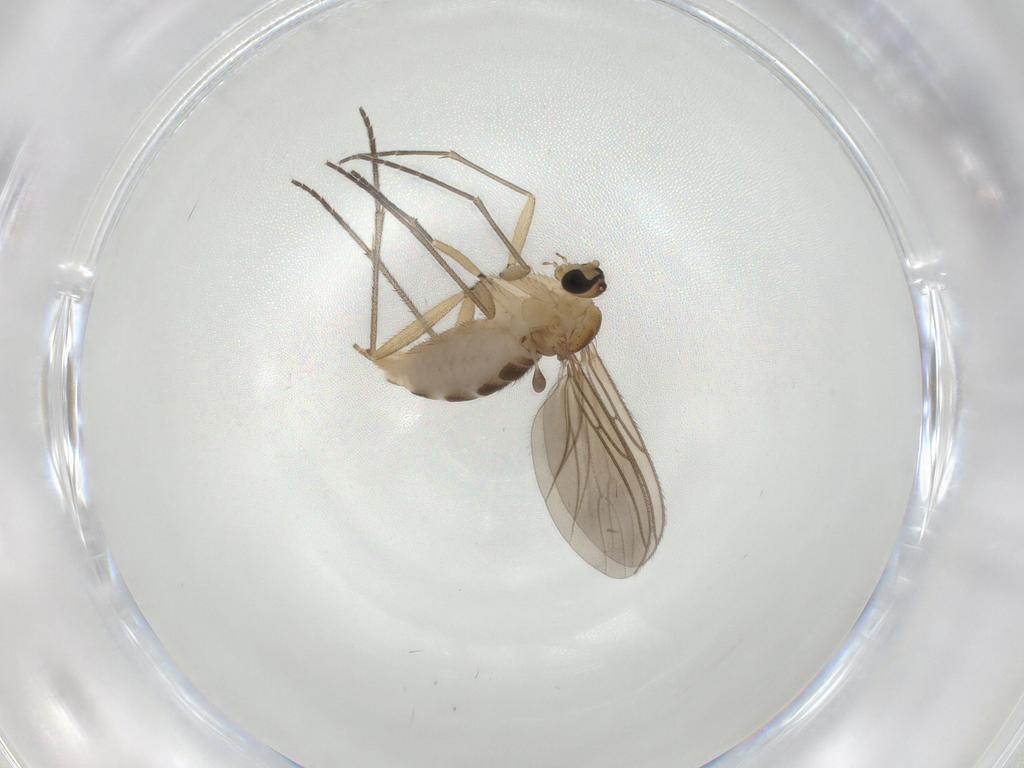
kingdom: Animalia
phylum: Arthropoda
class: Insecta
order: Diptera
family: Sciaridae
